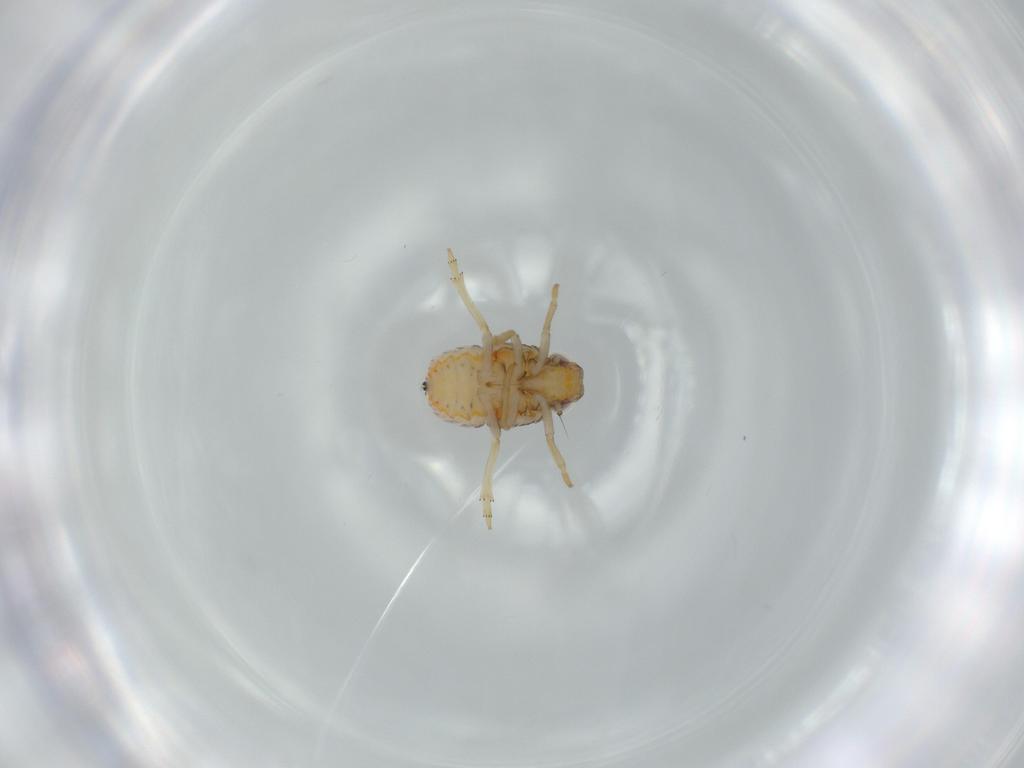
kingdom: Animalia
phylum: Arthropoda
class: Insecta
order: Hemiptera
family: Issidae
